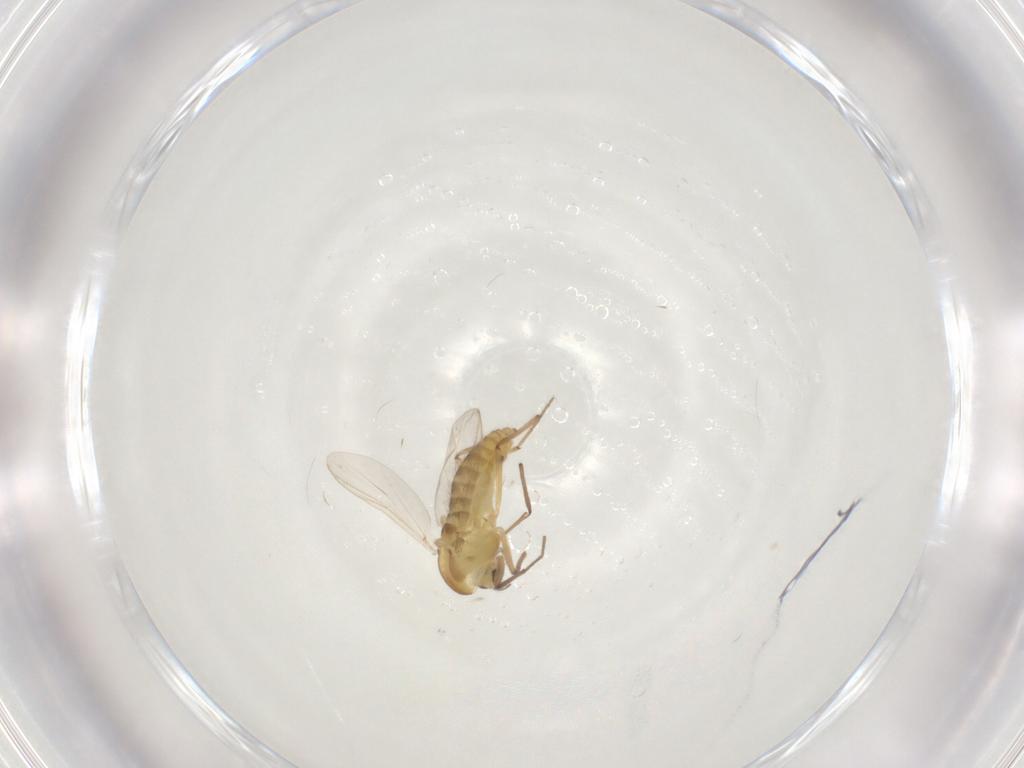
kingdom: Animalia
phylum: Arthropoda
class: Insecta
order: Diptera
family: Chironomidae
